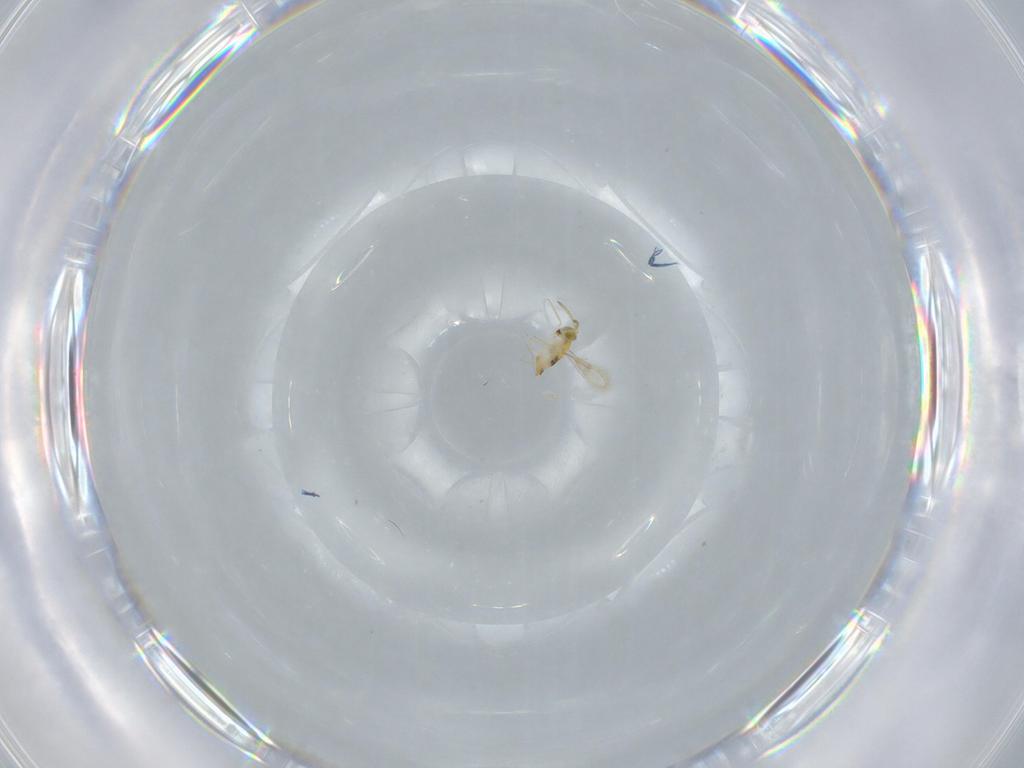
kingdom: Animalia
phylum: Arthropoda
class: Insecta
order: Hymenoptera
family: Aphelinidae
